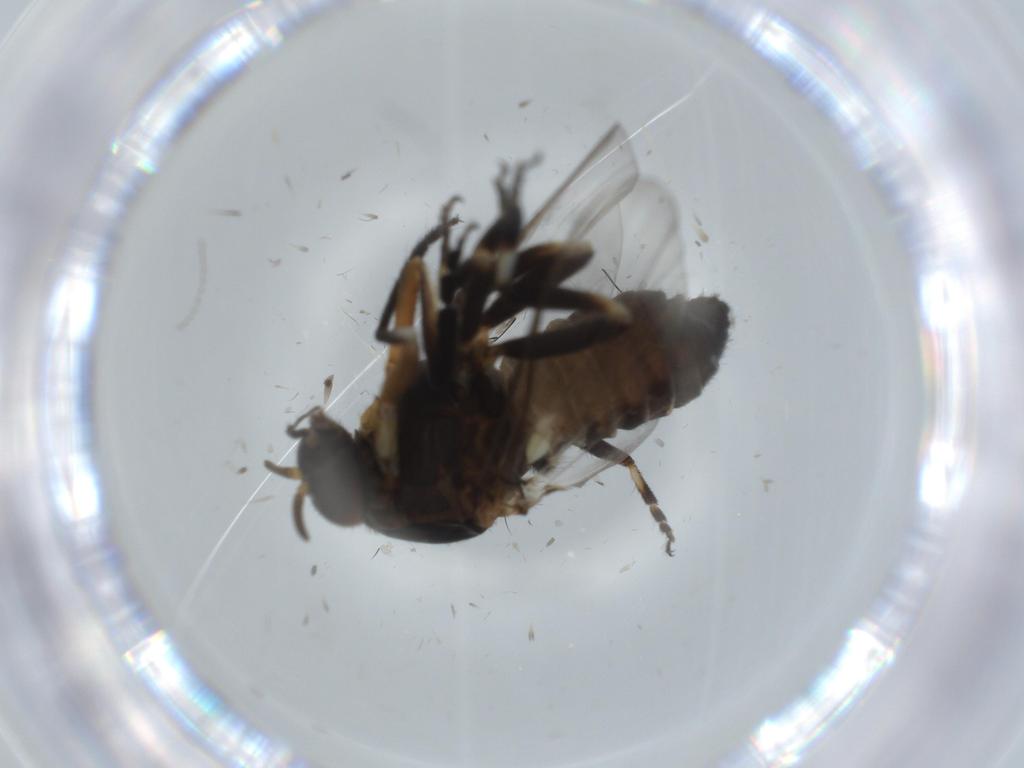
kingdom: Animalia
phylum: Arthropoda
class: Insecta
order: Diptera
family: Phoridae
